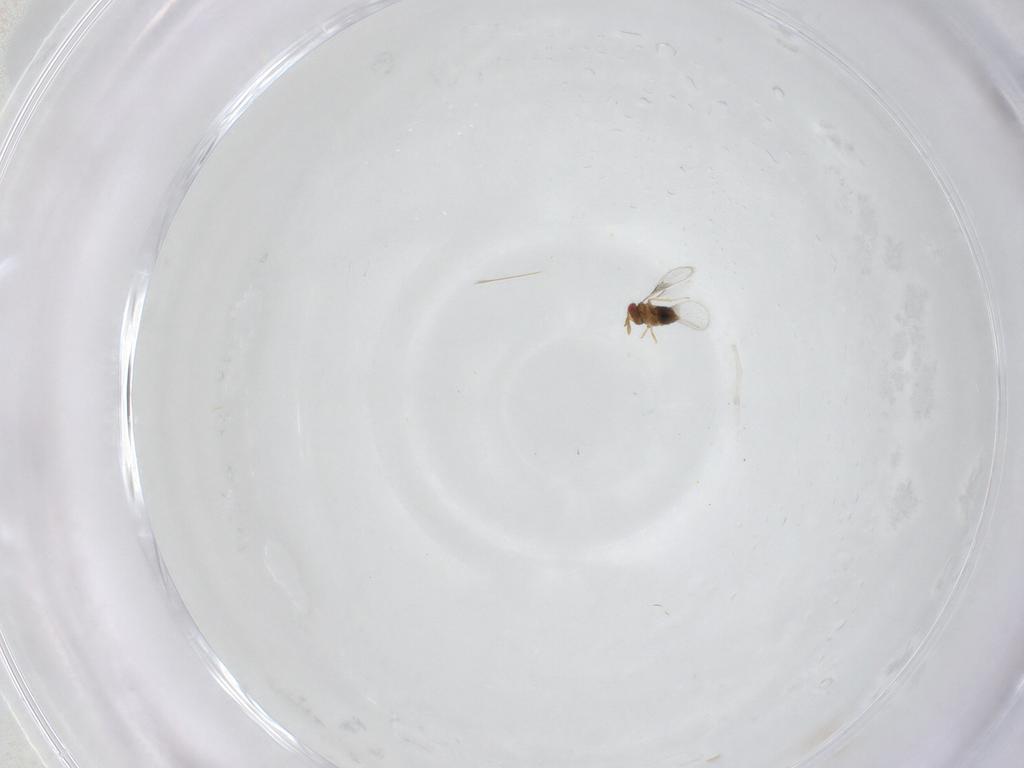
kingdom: Animalia
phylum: Arthropoda
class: Insecta
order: Hymenoptera
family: Trichogrammatidae
